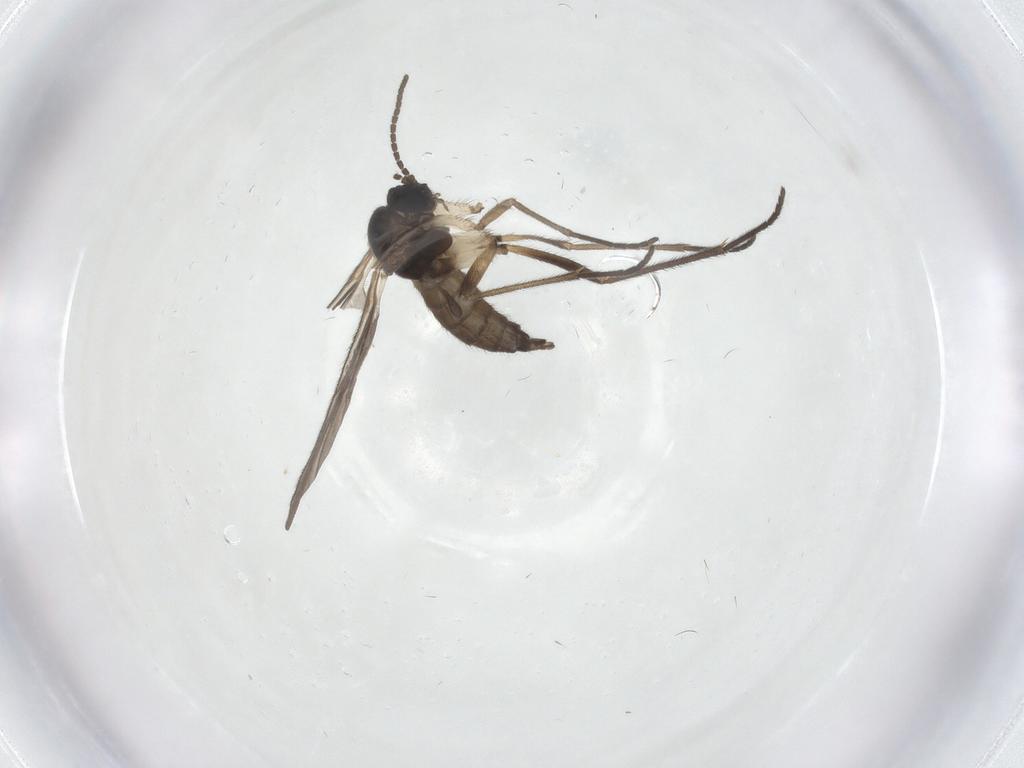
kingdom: Animalia
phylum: Arthropoda
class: Insecta
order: Diptera
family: Sciaridae
